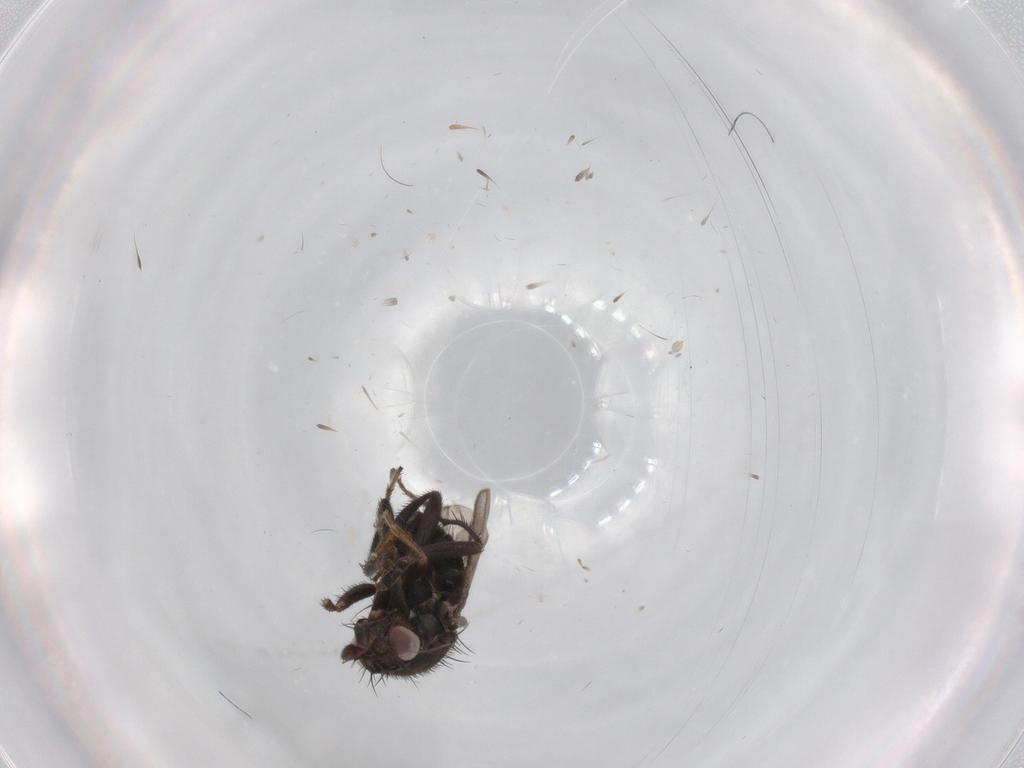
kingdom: Animalia
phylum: Arthropoda
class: Insecta
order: Diptera
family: Sphaeroceridae
